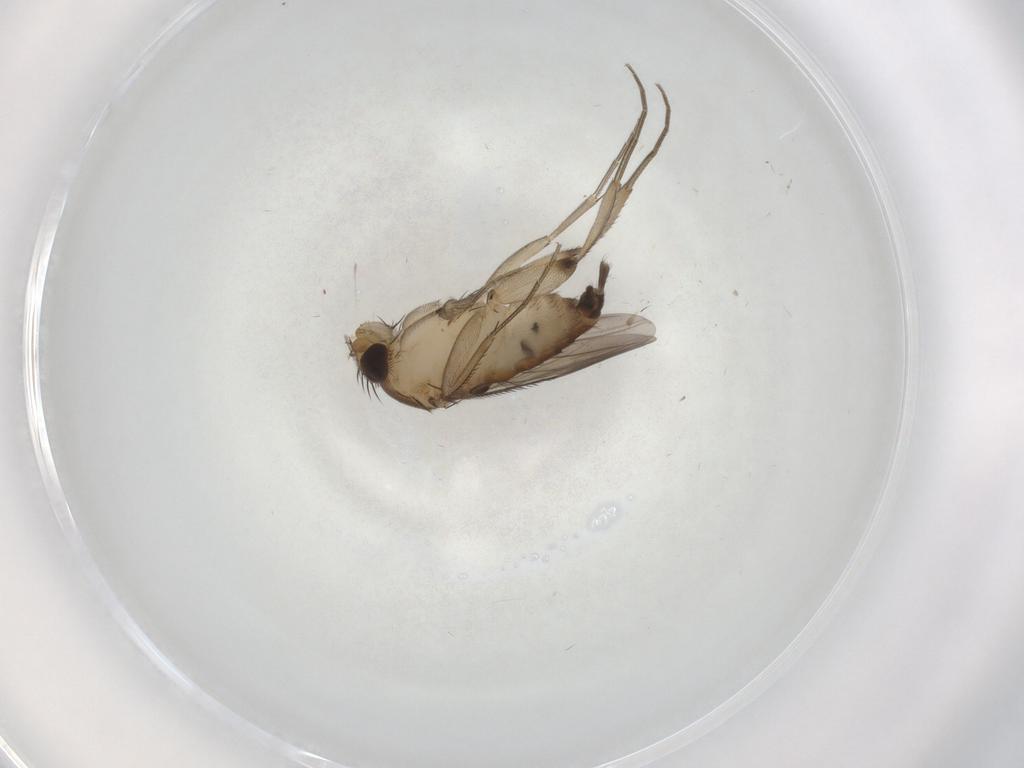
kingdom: Animalia
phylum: Arthropoda
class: Insecta
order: Diptera
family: Phoridae
